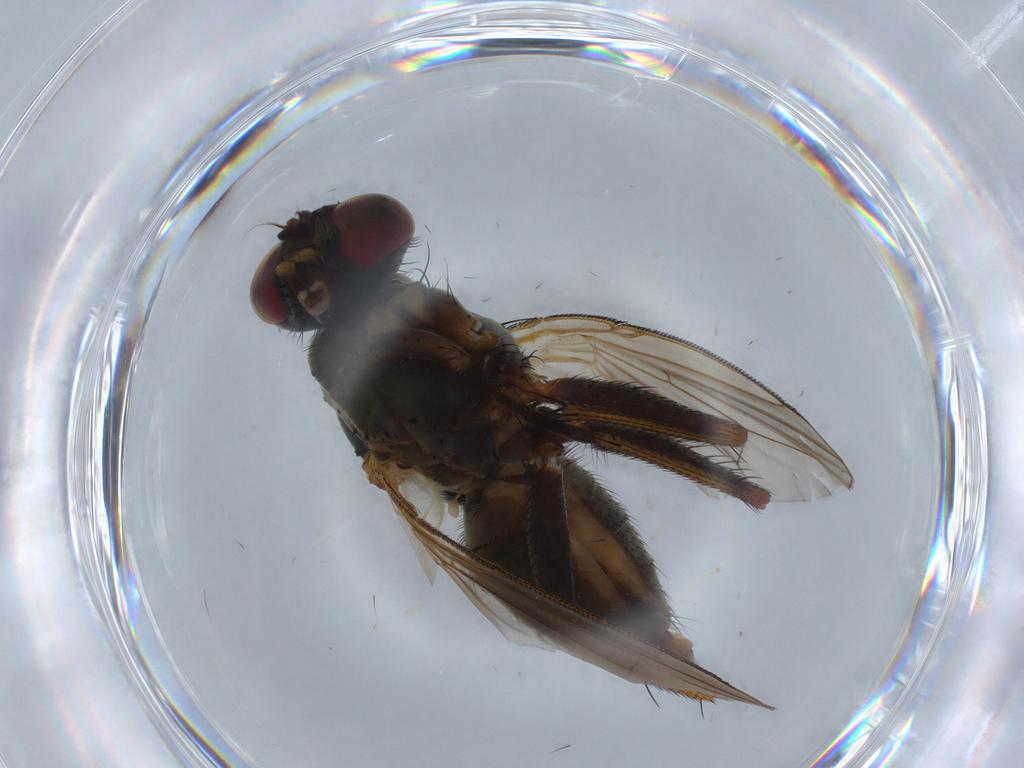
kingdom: Animalia
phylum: Arthropoda
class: Insecta
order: Diptera
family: Muscidae
